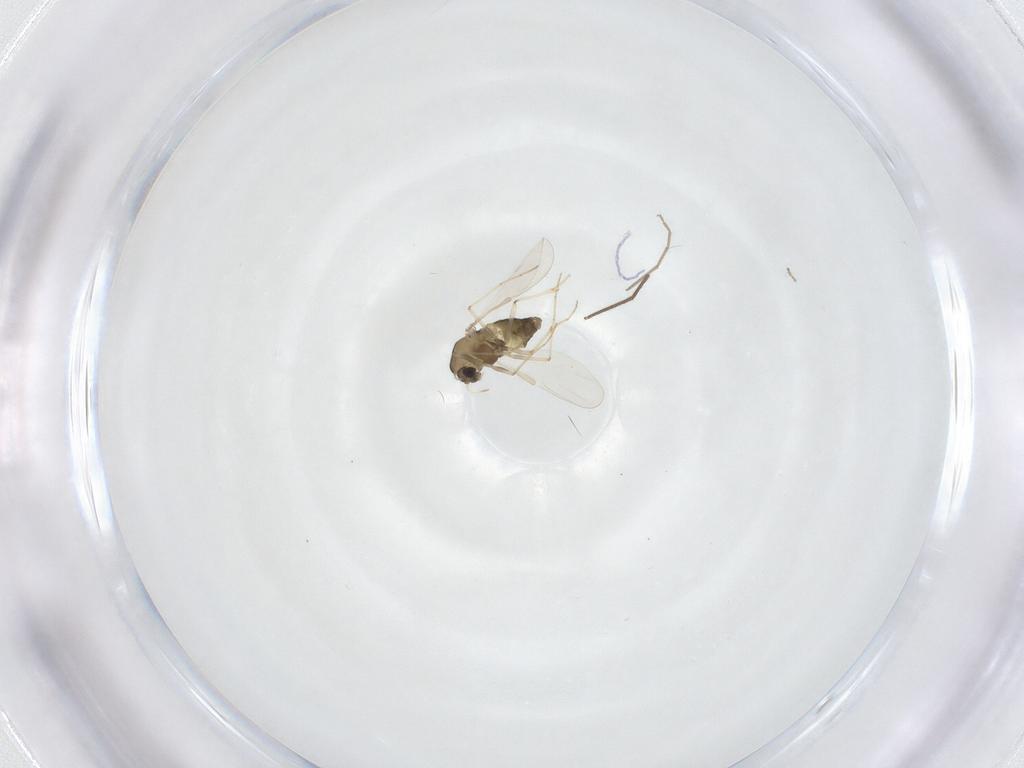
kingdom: Animalia
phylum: Arthropoda
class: Insecta
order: Diptera
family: Chironomidae
